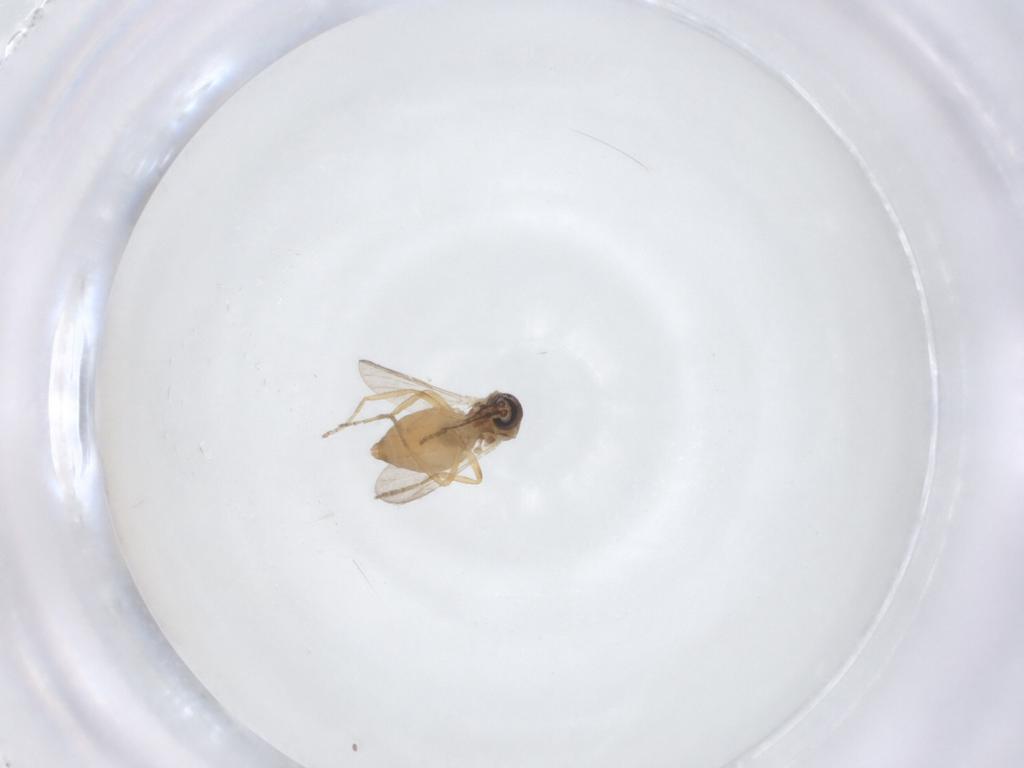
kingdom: Animalia
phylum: Arthropoda
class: Insecta
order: Diptera
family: Ceratopogonidae
